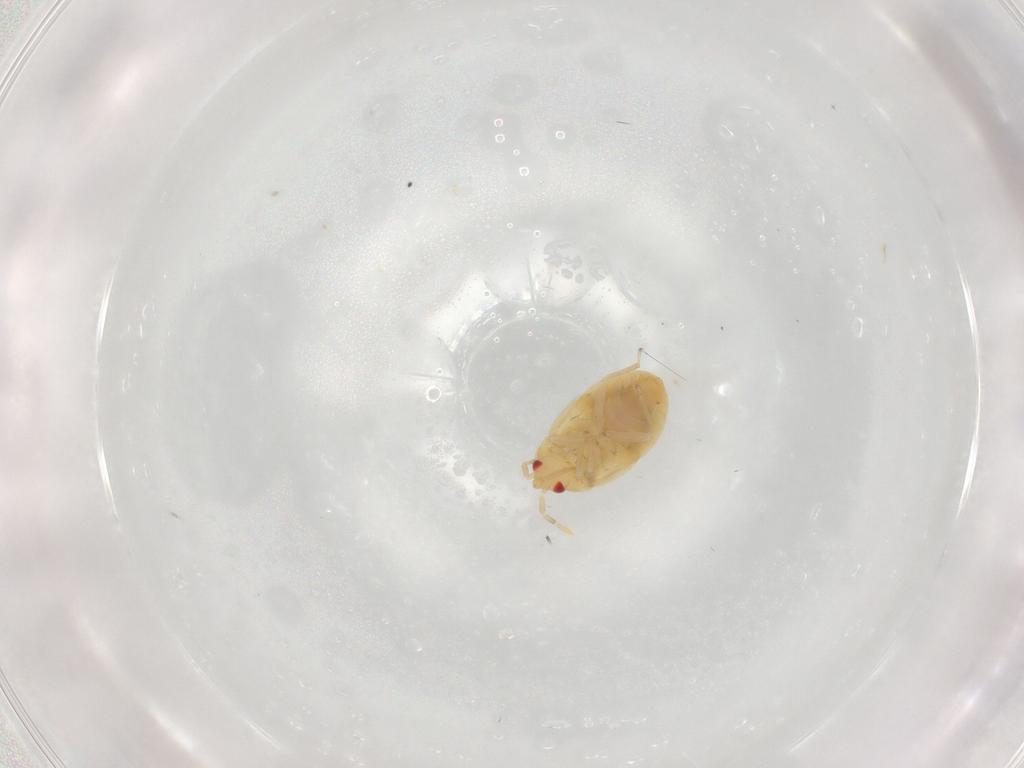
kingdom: Animalia
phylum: Arthropoda
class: Insecta
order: Hemiptera
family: Anthocoridae
